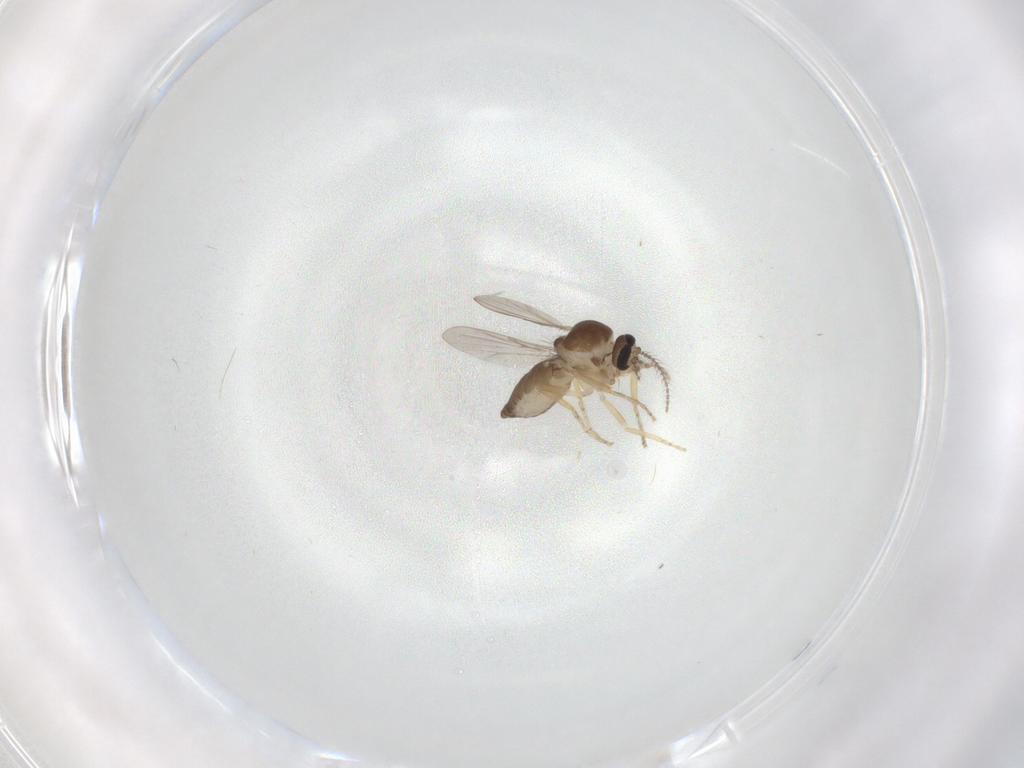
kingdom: Animalia
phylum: Arthropoda
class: Insecta
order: Diptera
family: Ceratopogonidae
